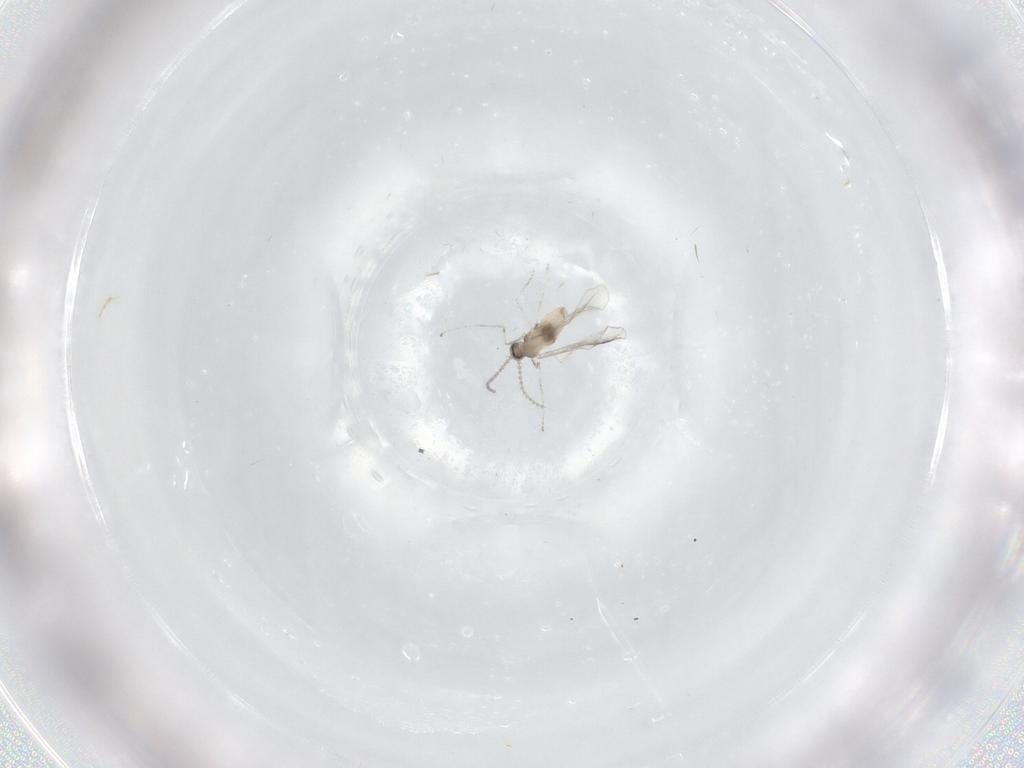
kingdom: Animalia
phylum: Arthropoda
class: Insecta
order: Diptera
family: Cecidomyiidae
